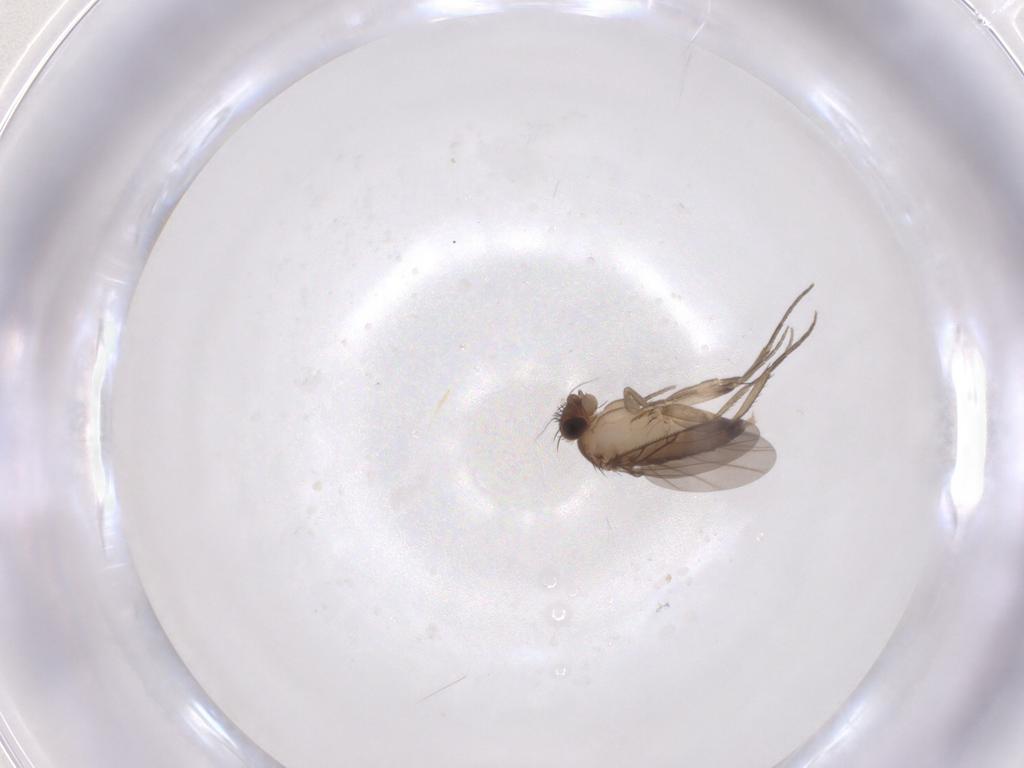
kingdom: Animalia
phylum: Arthropoda
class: Insecta
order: Diptera
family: Phoridae
